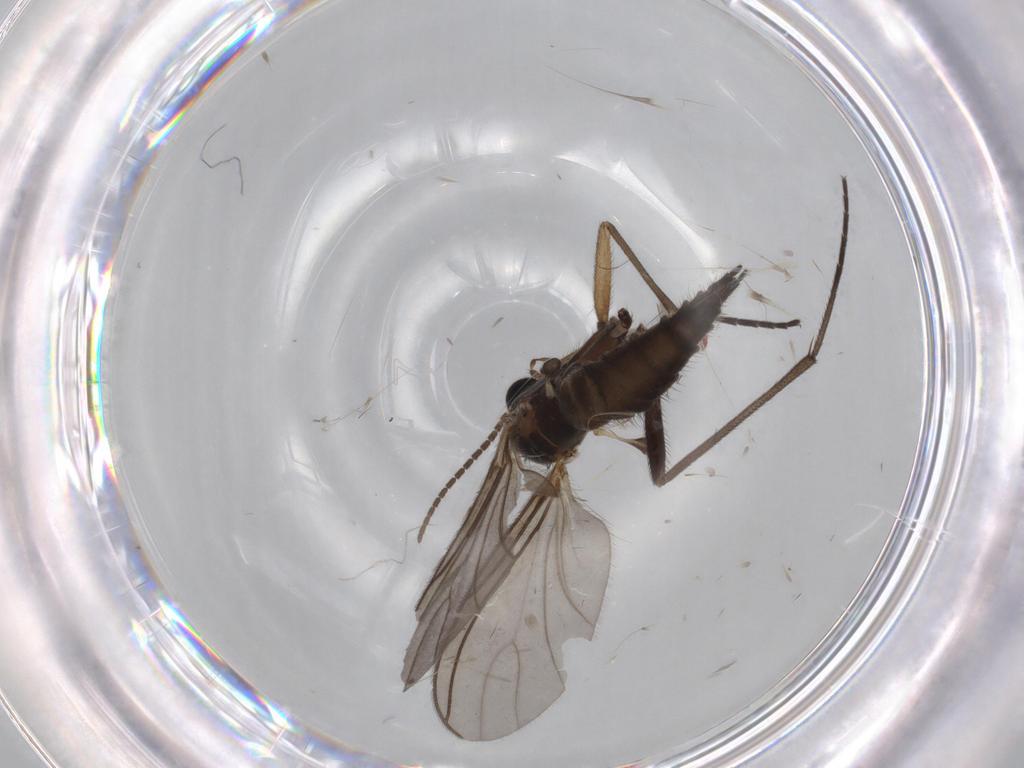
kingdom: Animalia
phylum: Arthropoda
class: Insecta
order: Diptera
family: Sciaridae
